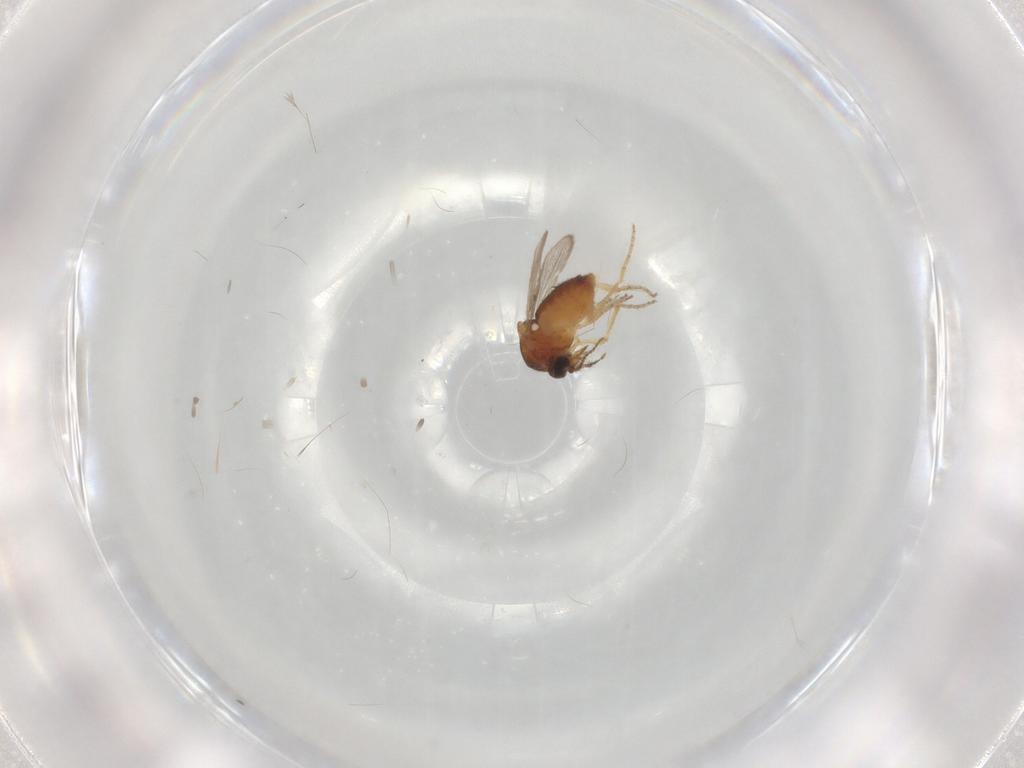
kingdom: Animalia
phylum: Arthropoda
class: Insecta
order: Diptera
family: Ceratopogonidae
